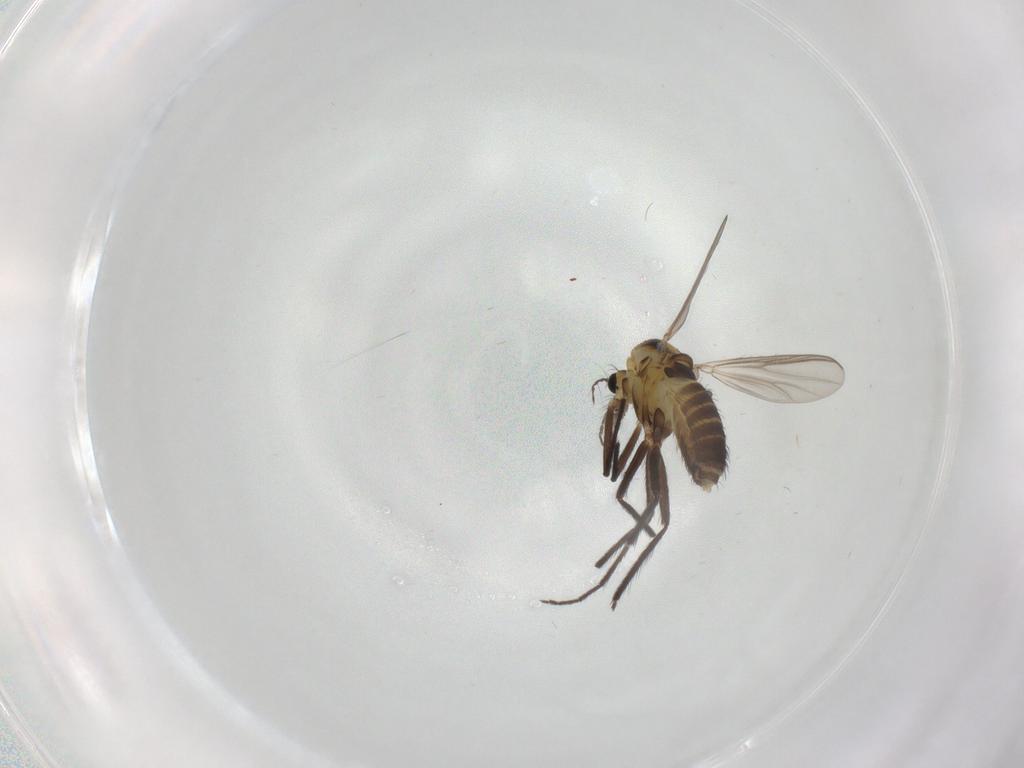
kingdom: Animalia
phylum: Arthropoda
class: Insecta
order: Diptera
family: Chironomidae
